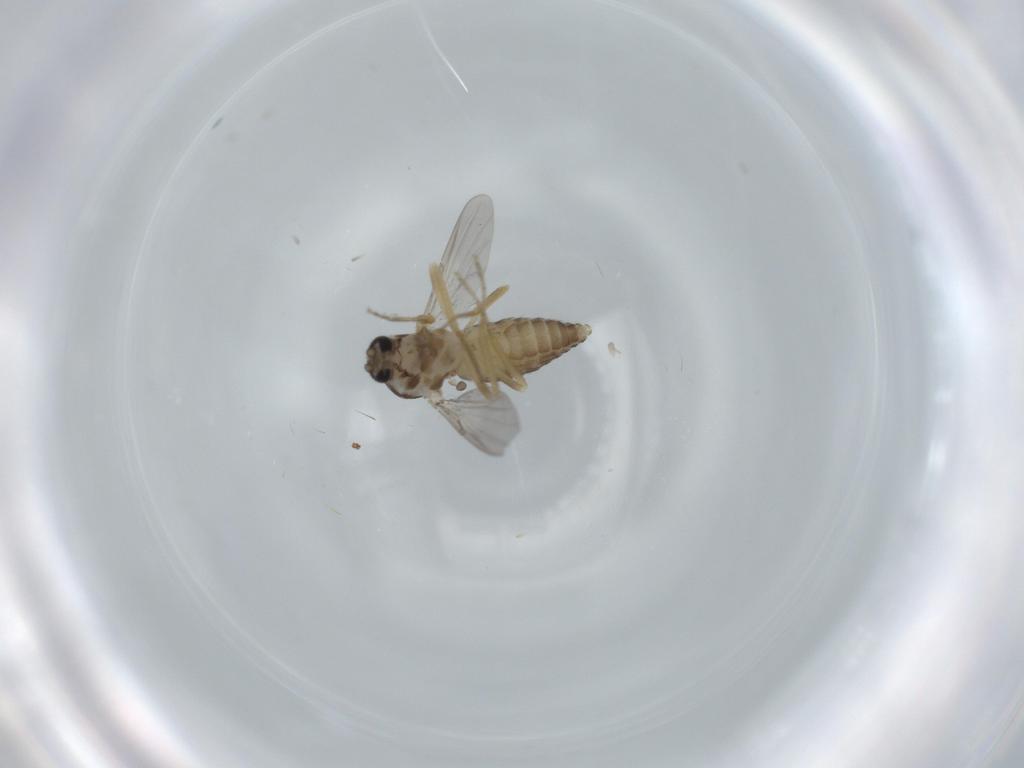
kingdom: Animalia
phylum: Arthropoda
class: Insecta
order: Diptera
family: Ceratopogonidae
